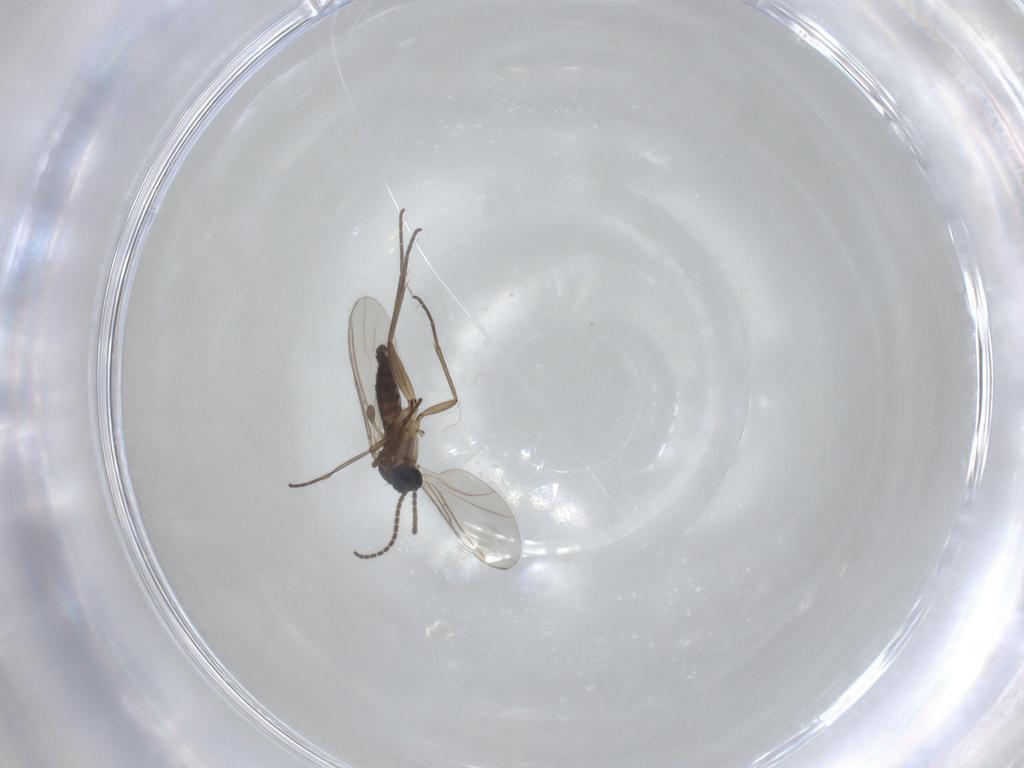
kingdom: Animalia
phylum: Arthropoda
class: Insecta
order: Diptera
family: Sciaridae
